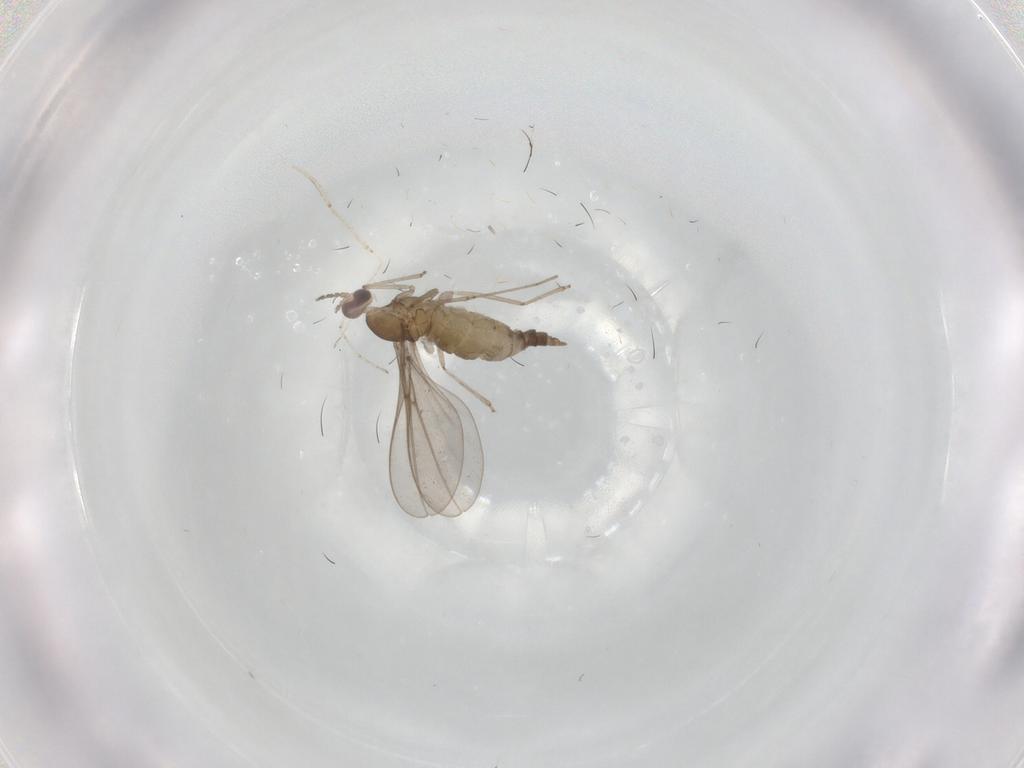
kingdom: Animalia
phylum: Arthropoda
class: Insecta
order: Diptera
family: Cecidomyiidae
